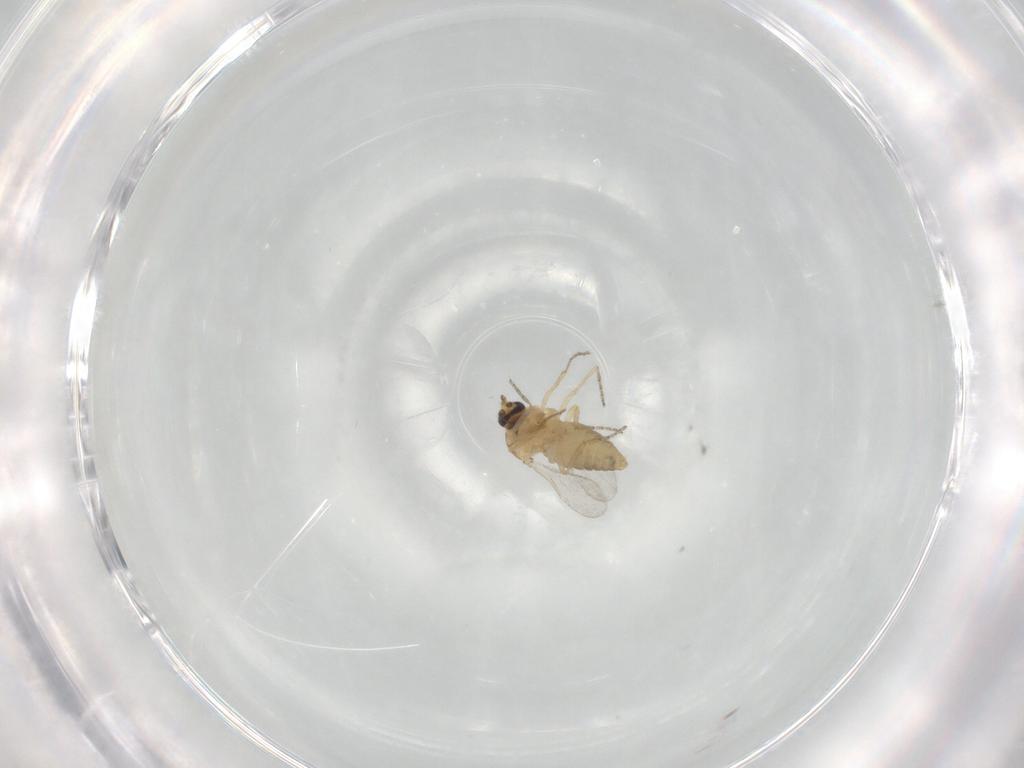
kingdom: Animalia
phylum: Arthropoda
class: Insecta
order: Diptera
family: Ceratopogonidae
